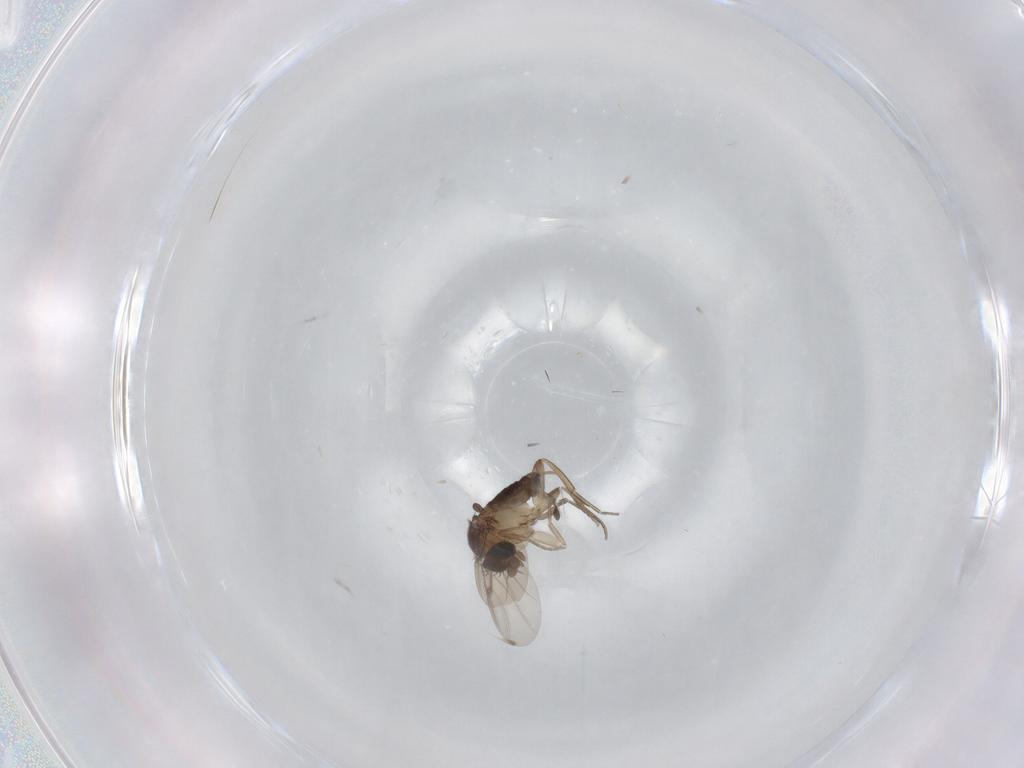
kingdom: Animalia
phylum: Arthropoda
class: Insecta
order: Diptera
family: Phoridae
